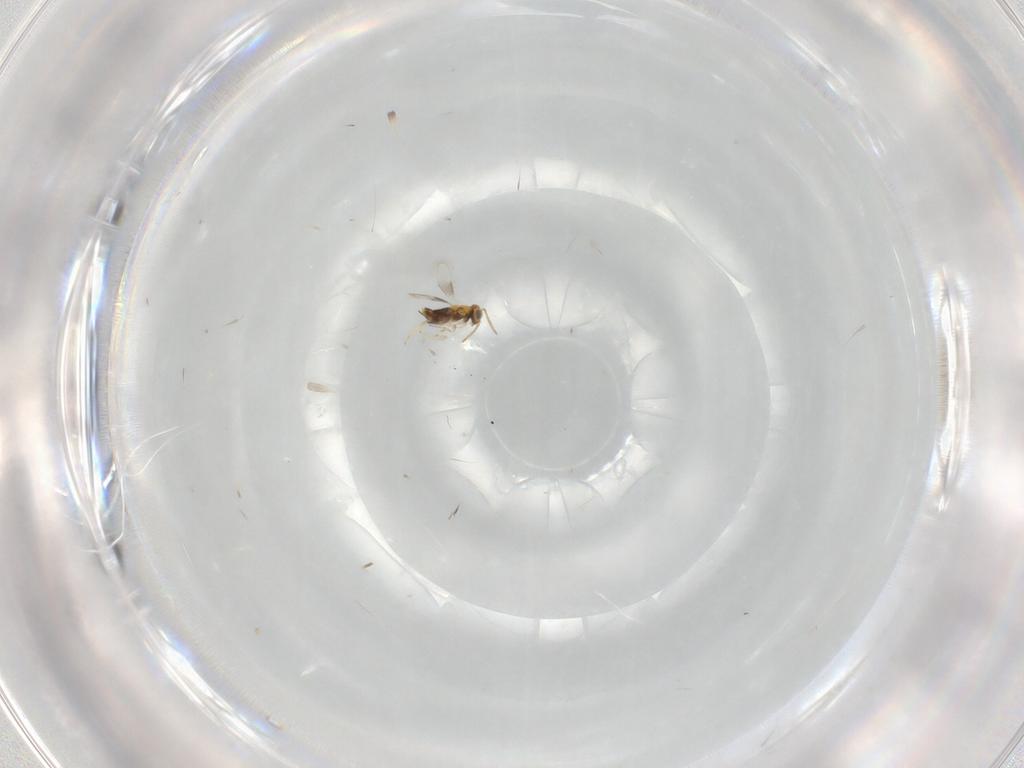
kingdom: Animalia
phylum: Arthropoda
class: Insecta
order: Hymenoptera
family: Aphelinidae
